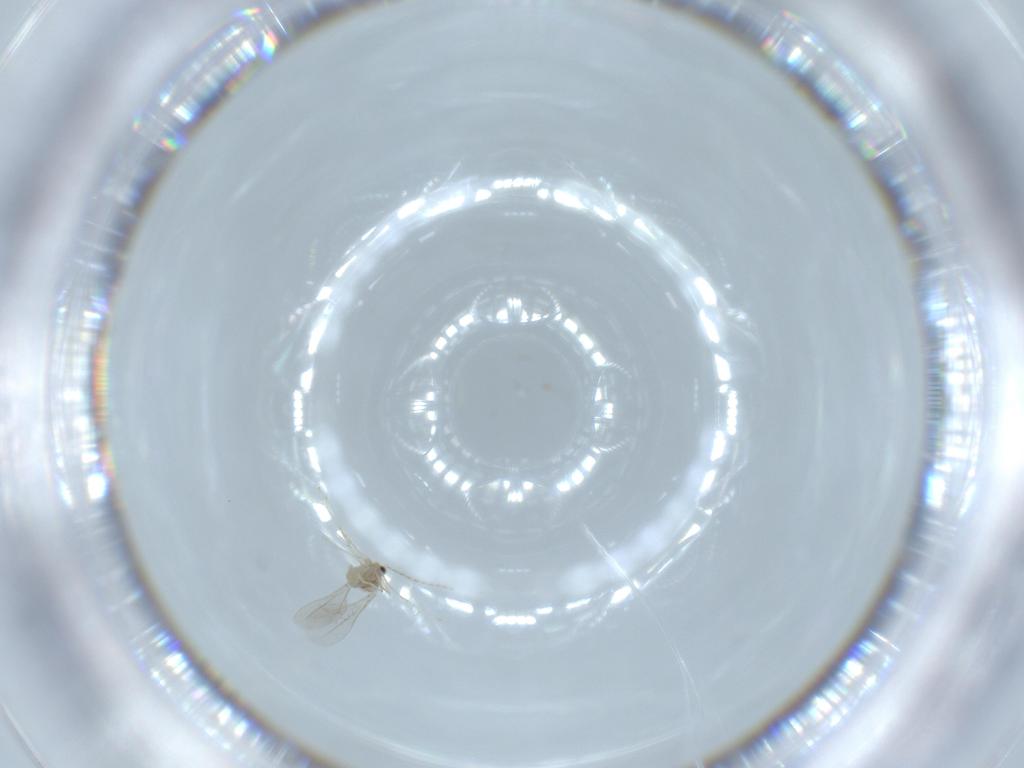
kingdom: Animalia
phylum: Arthropoda
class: Insecta
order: Diptera
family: Cecidomyiidae
